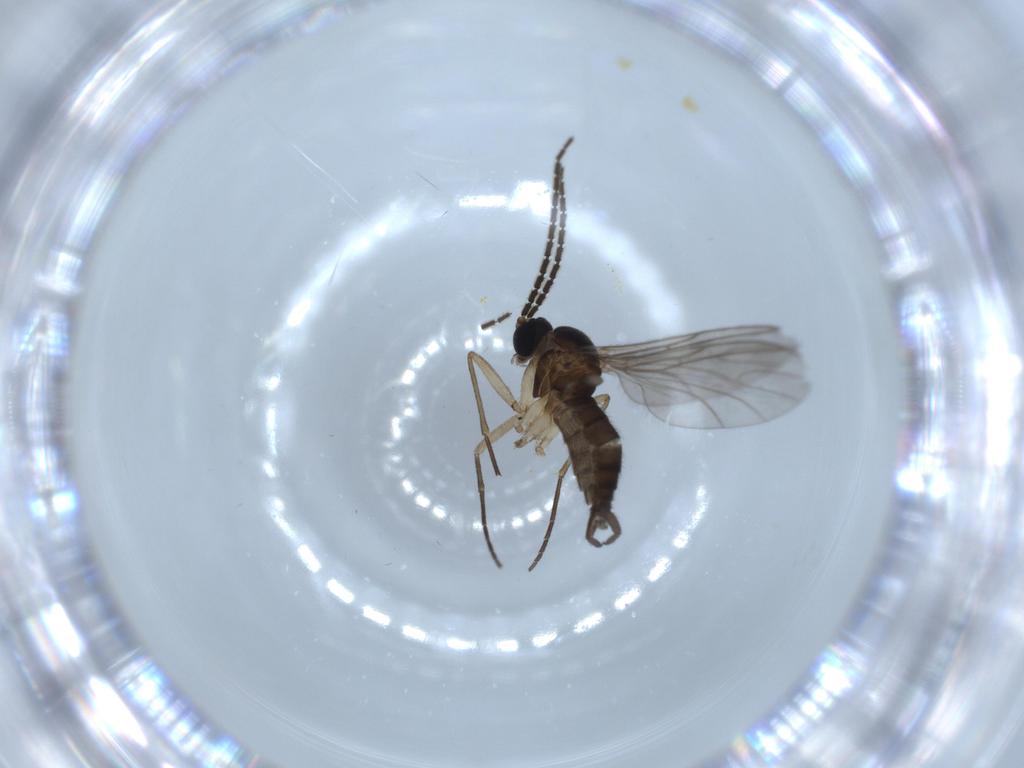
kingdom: Animalia
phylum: Arthropoda
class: Insecta
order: Diptera
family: Sciaridae
